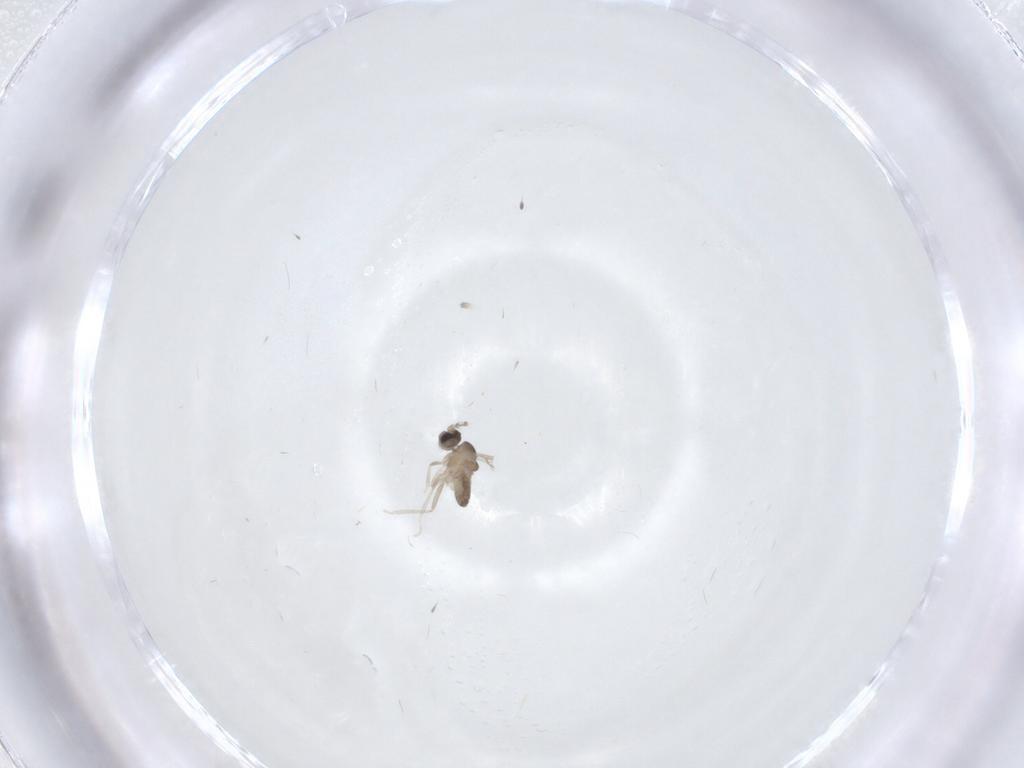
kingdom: Animalia
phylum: Arthropoda
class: Insecta
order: Diptera
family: Cecidomyiidae
